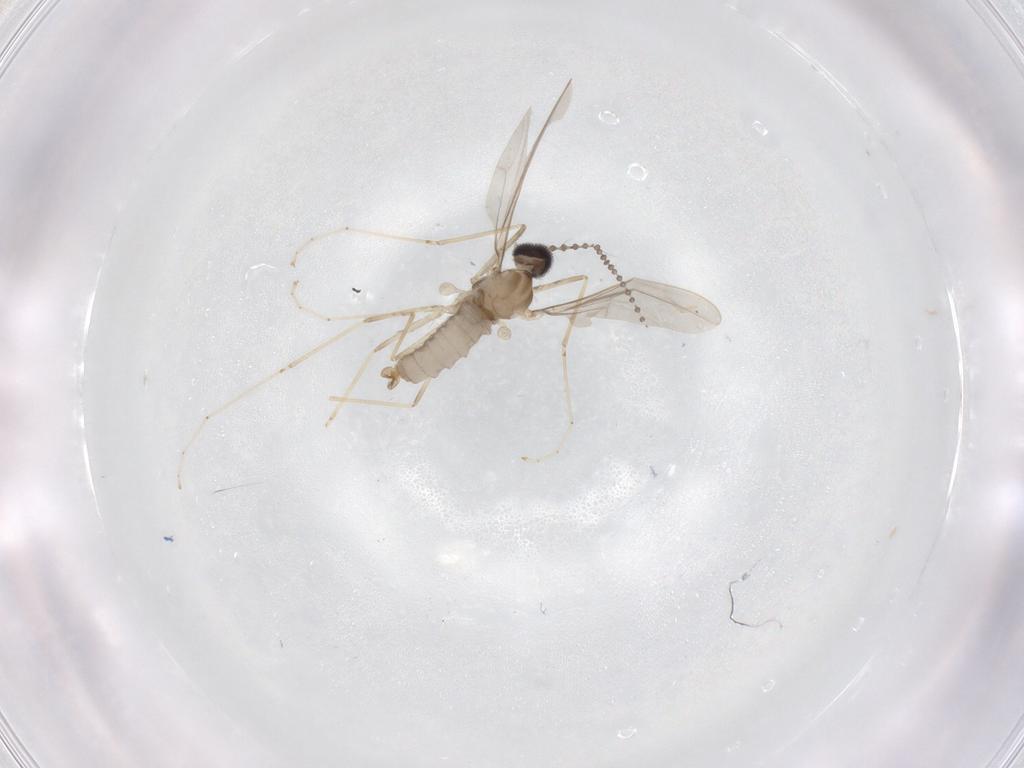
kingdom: Animalia
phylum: Arthropoda
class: Insecta
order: Diptera
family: Cecidomyiidae
